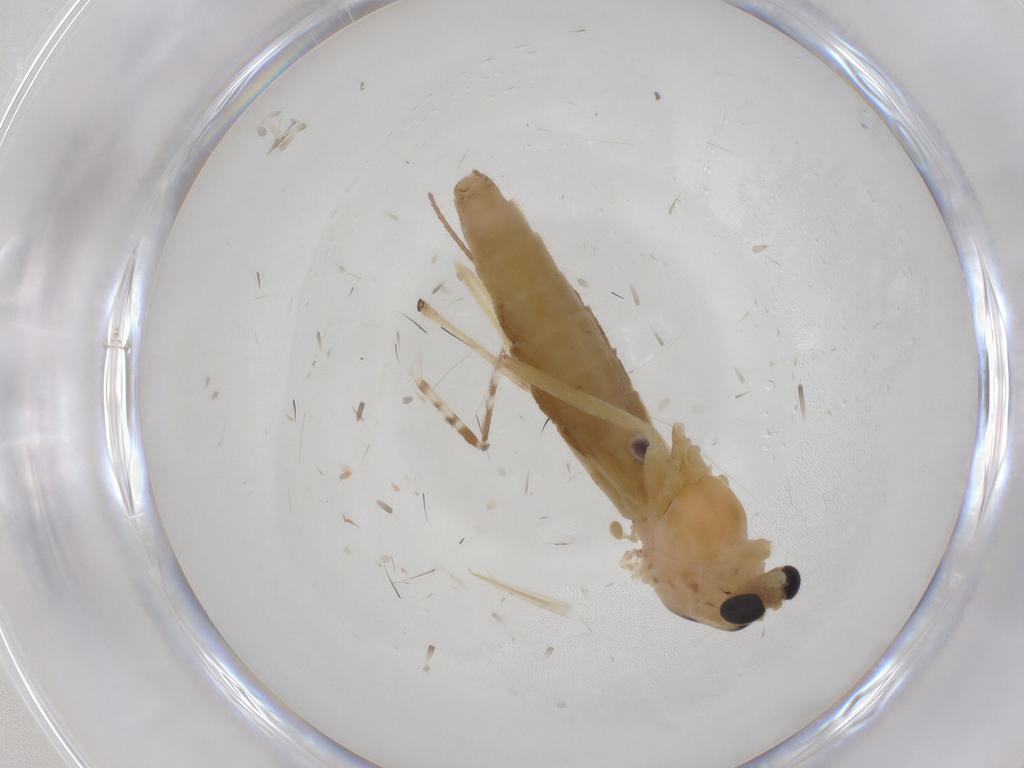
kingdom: Animalia
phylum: Arthropoda
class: Insecta
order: Diptera
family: Chironomidae
